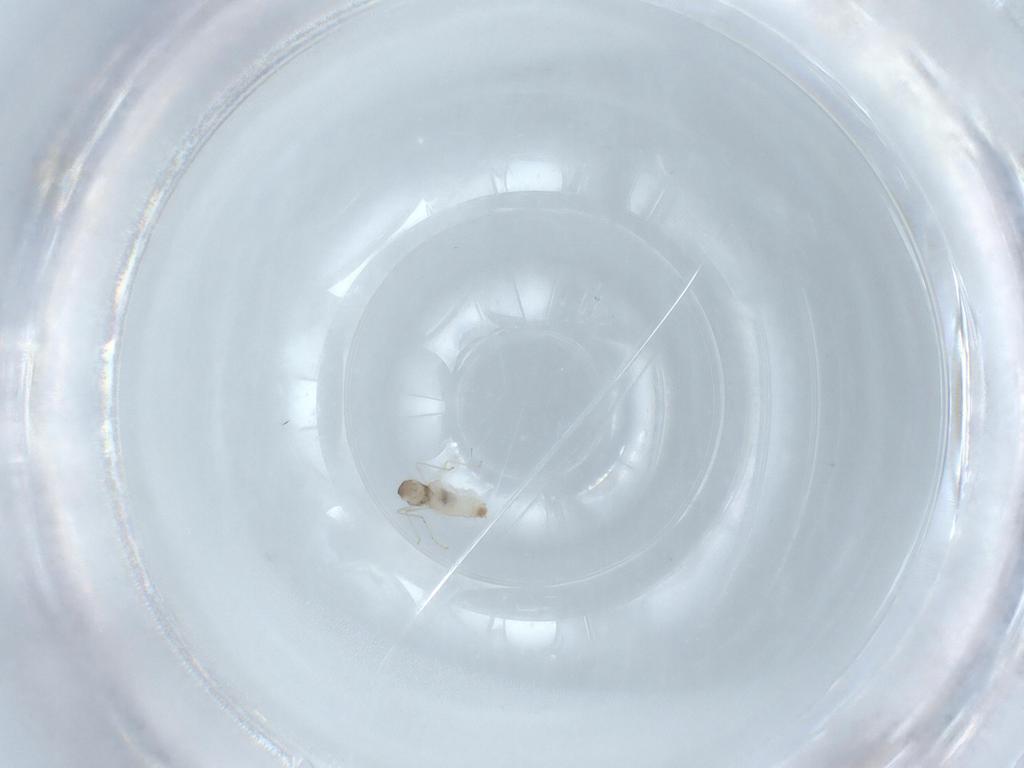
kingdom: Animalia
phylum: Arthropoda
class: Insecta
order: Diptera
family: Cecidomyiidae
